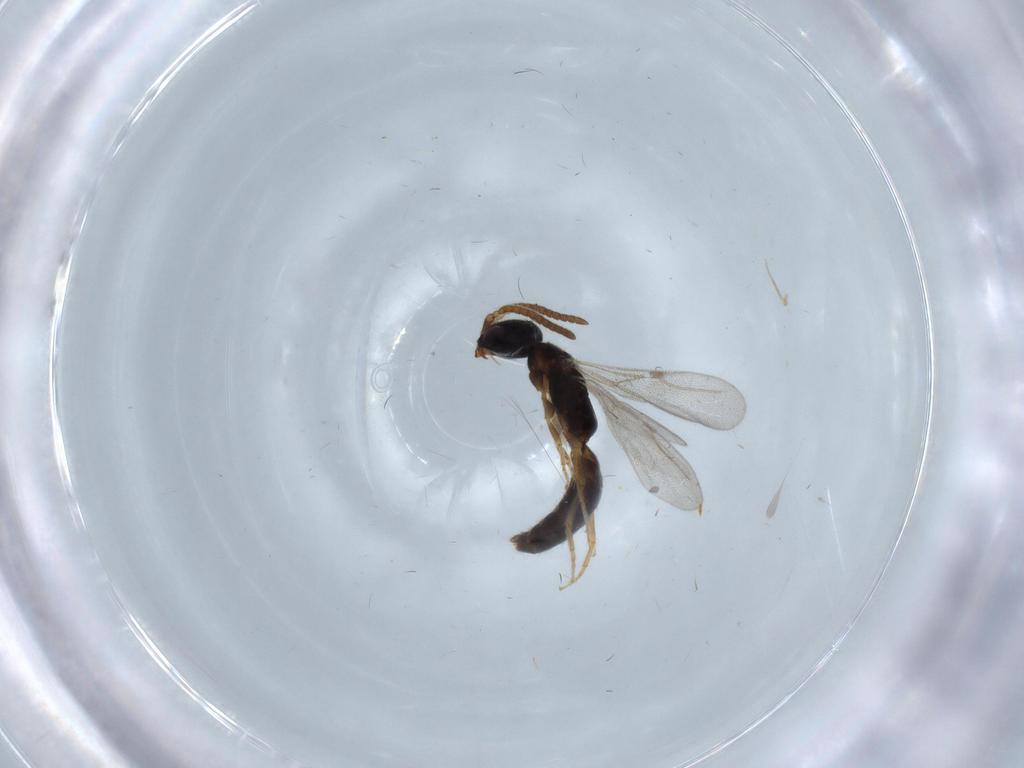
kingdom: Animalia
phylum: Arthropoda
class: Insecta
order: Hymenoptera
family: Bethylidae
